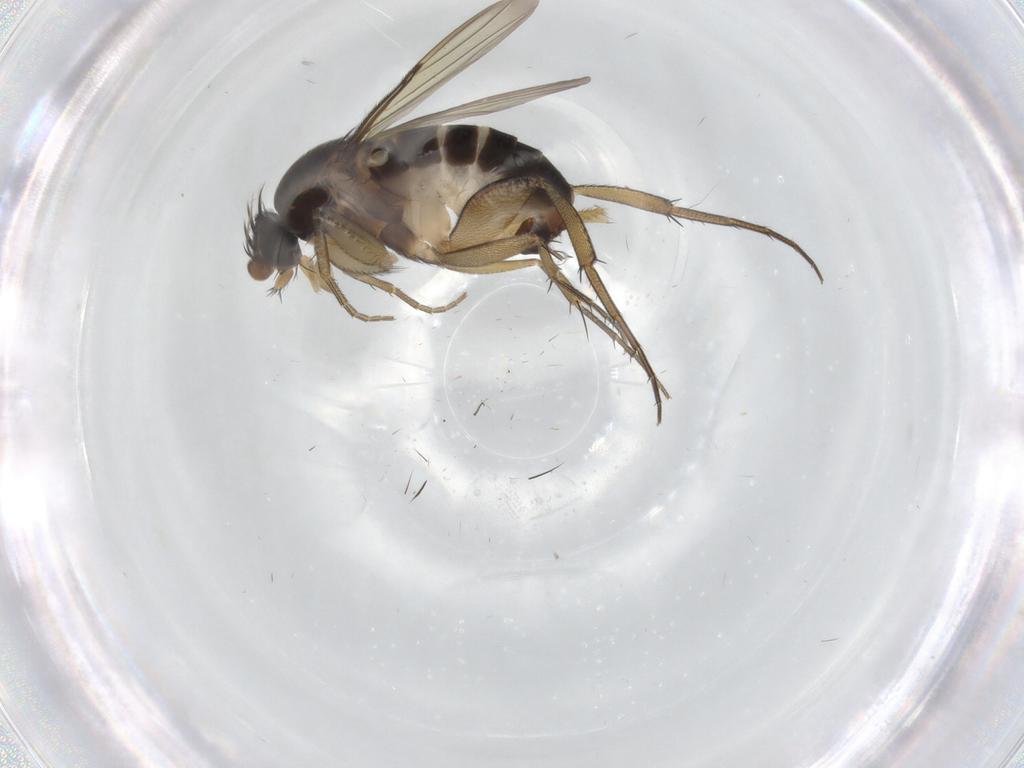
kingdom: Animalia
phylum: Arthropoda
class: Insecta
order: Diptera
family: Phoridae
